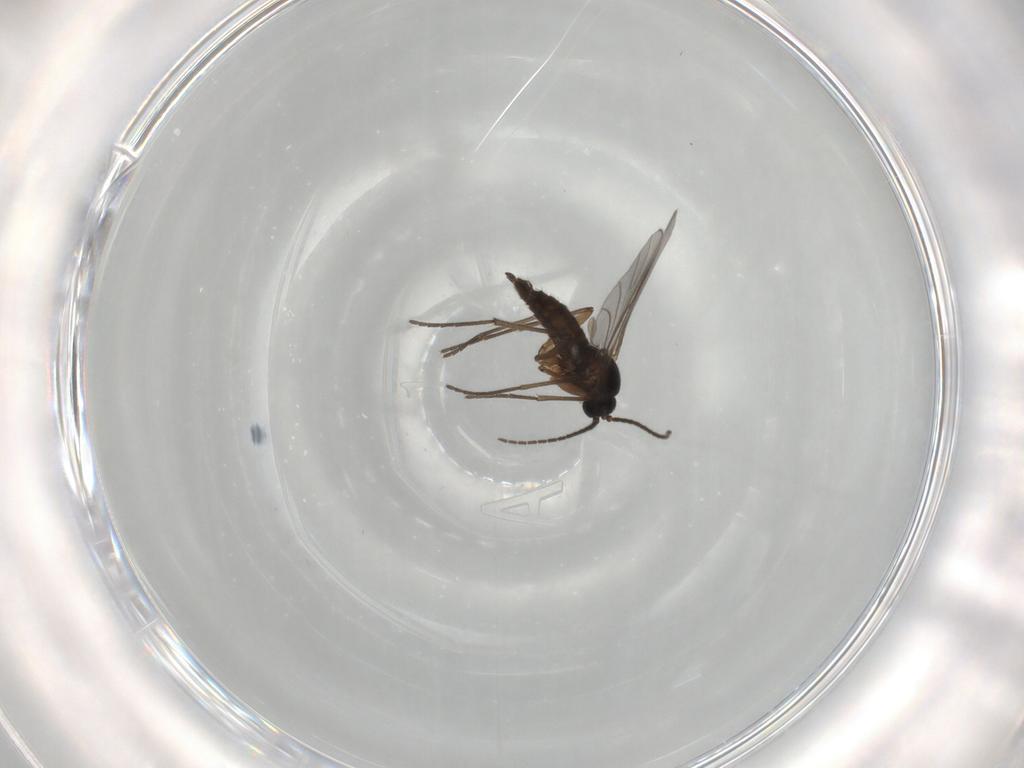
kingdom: Animalia
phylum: Arthropoda
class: Insecta
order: Diptera
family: Sciaridae
